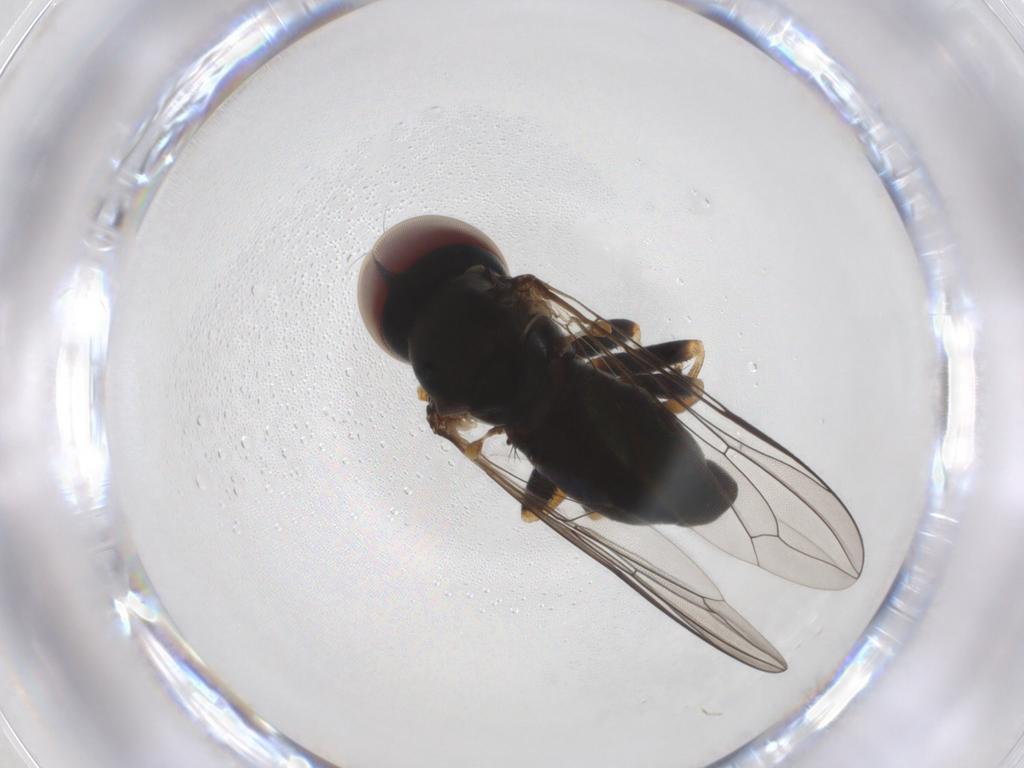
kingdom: Animalia
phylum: Arthropoda
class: Insecta
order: Diptera
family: Pipunculidae
